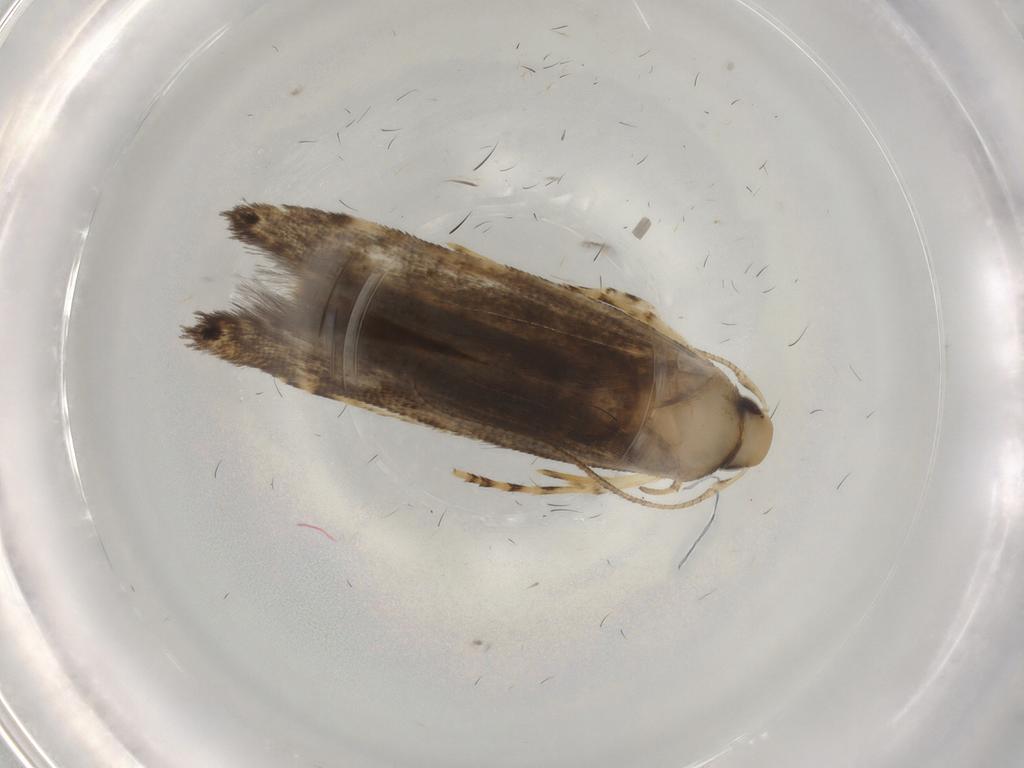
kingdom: Animalia
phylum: Arthropoda
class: Insecta
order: Lepidoptera
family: Cosmopterigidae
